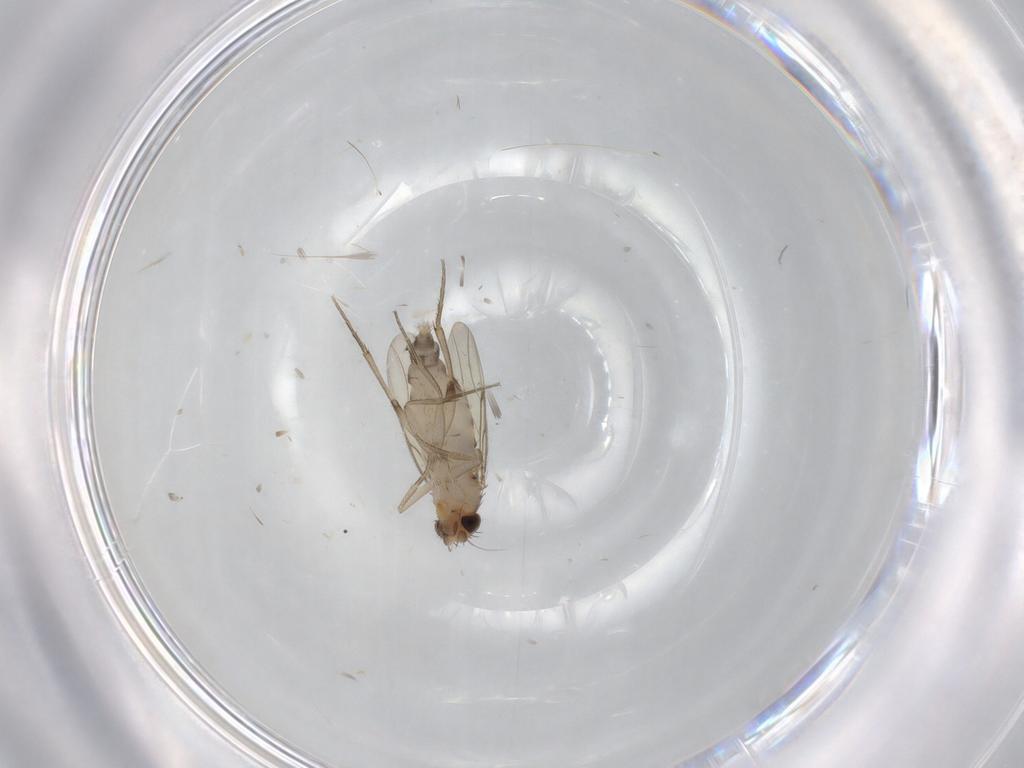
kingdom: Animalia
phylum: Arthropoda
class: Insecta
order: Diptera
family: Phoridae
